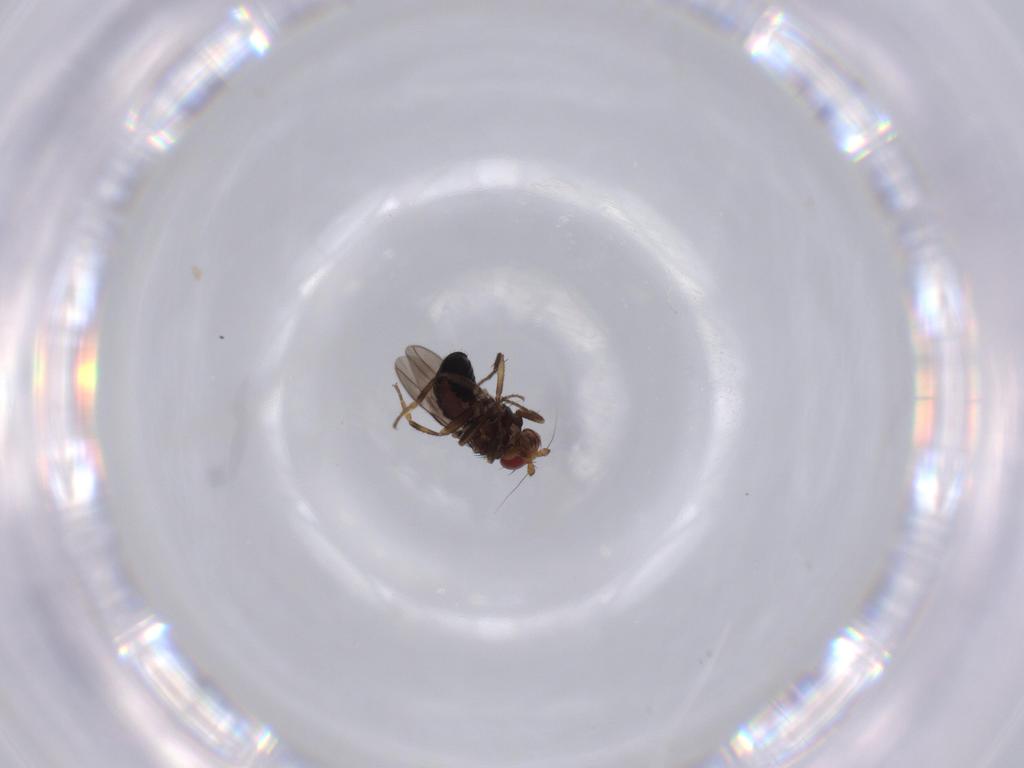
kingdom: Animalia
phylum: Arthropoda
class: Insecta
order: Diptera
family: Sphaeroceridae
